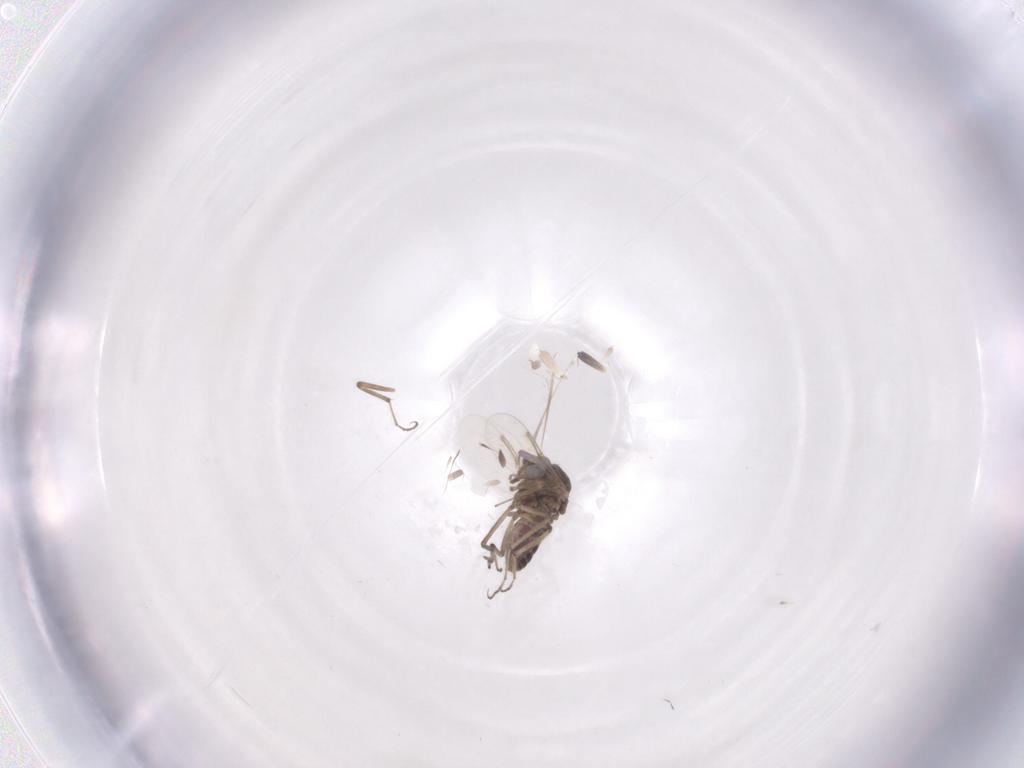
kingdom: Animalia
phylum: Arthropoda
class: Insecta
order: Diptera
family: Ceratopogonidae
